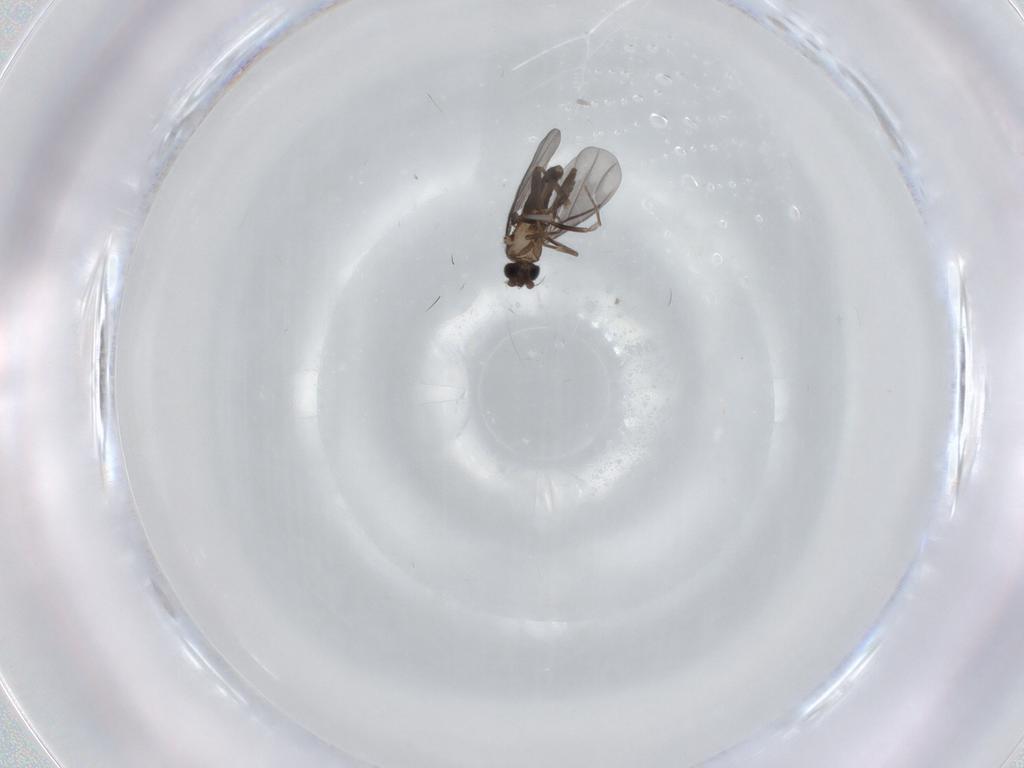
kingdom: Animalia
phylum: Arthropoda
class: Insecta
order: Diptera
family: Phoridae
